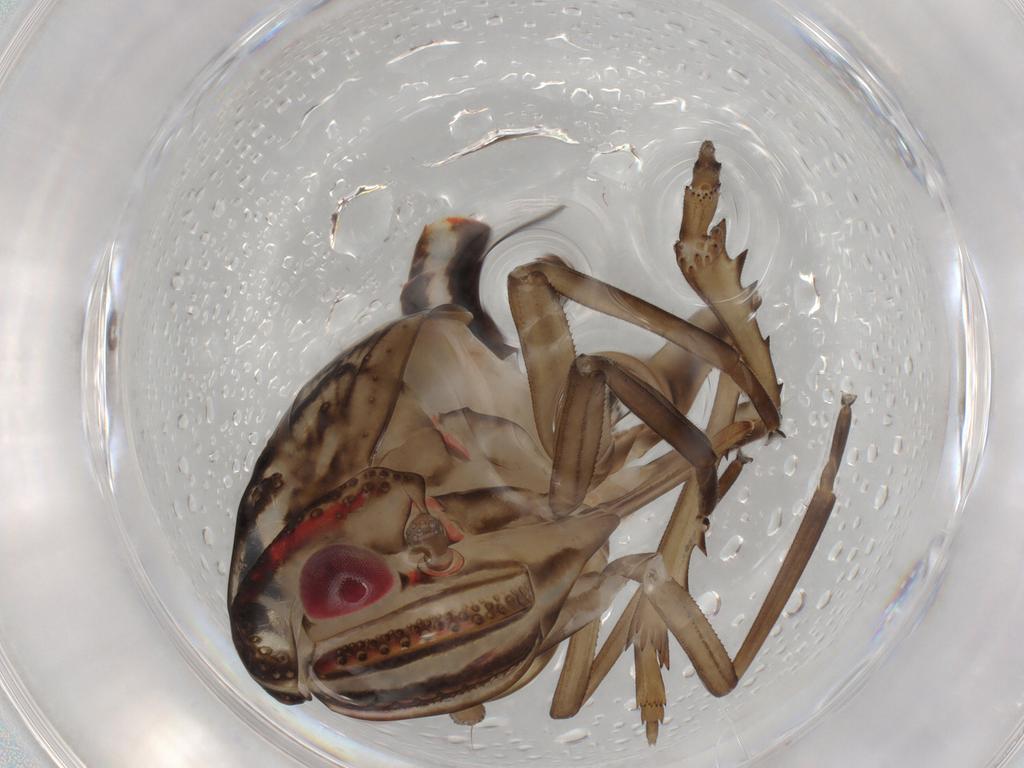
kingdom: Animalia
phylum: Arthropoda
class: Insecta
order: Hemiptera
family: Nogodinidae
